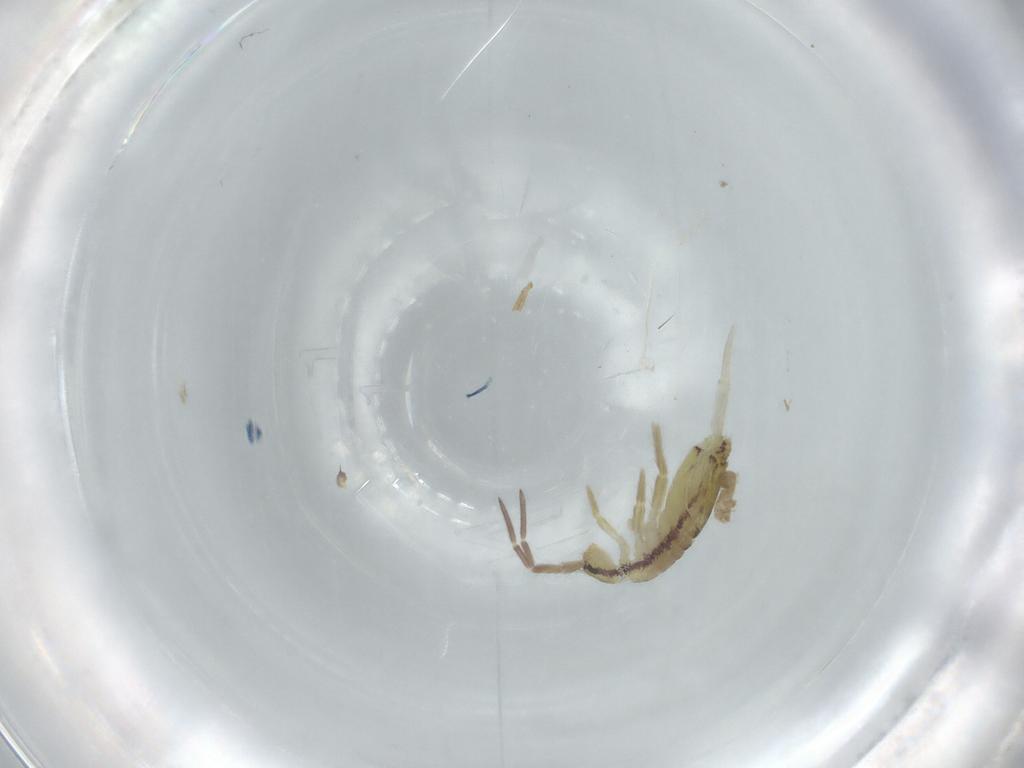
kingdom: Animalia
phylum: Arthropoda
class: Collembola
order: Entomobryomorpha
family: Entomobryidae
